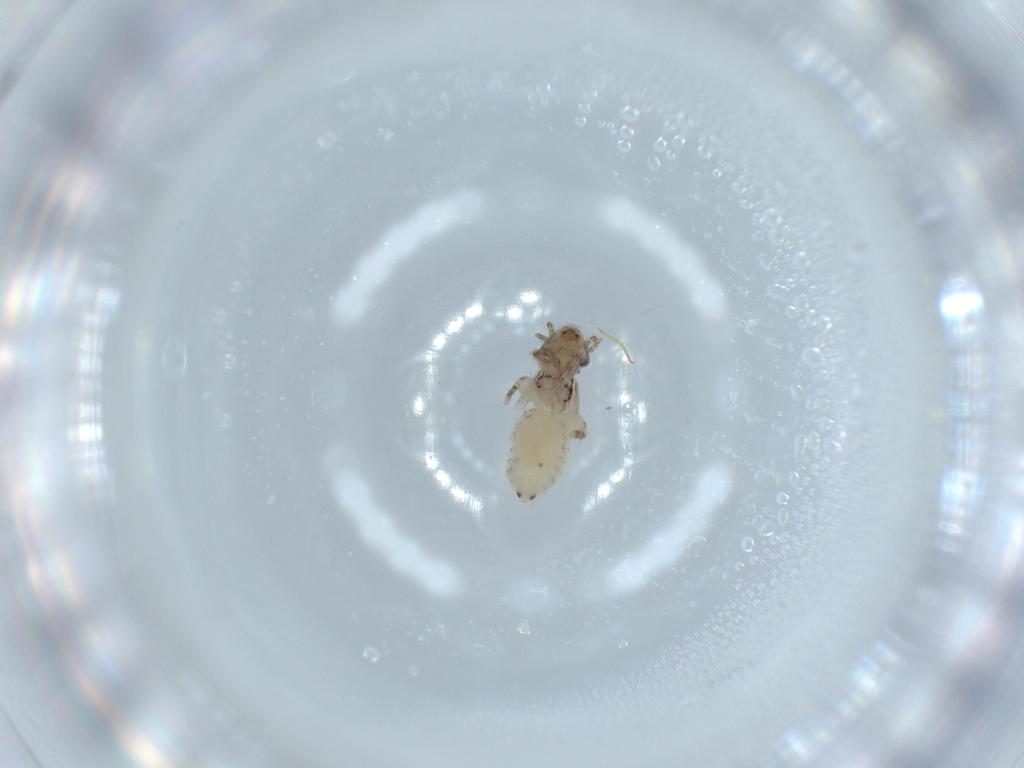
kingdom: Animalia
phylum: Arthropoda
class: Insecta
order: Psocodea
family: Lepidopsocidae
